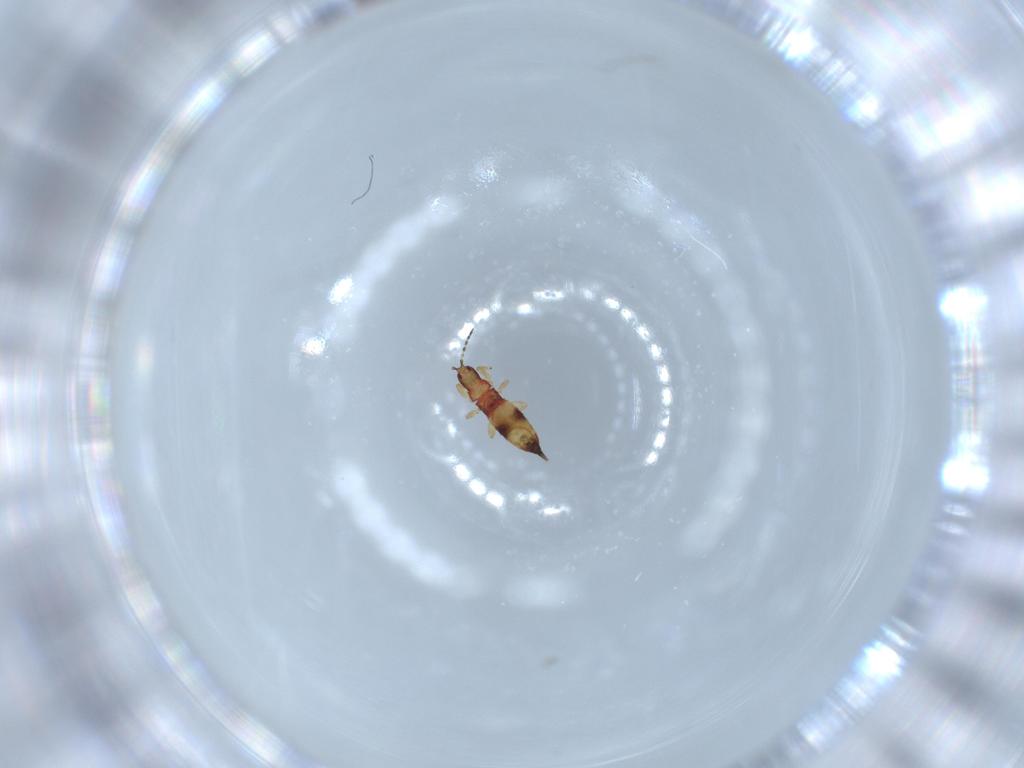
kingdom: Animalia
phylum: Arthropoda
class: Insecta
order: Thysanoptera
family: Phlaeothripidae
